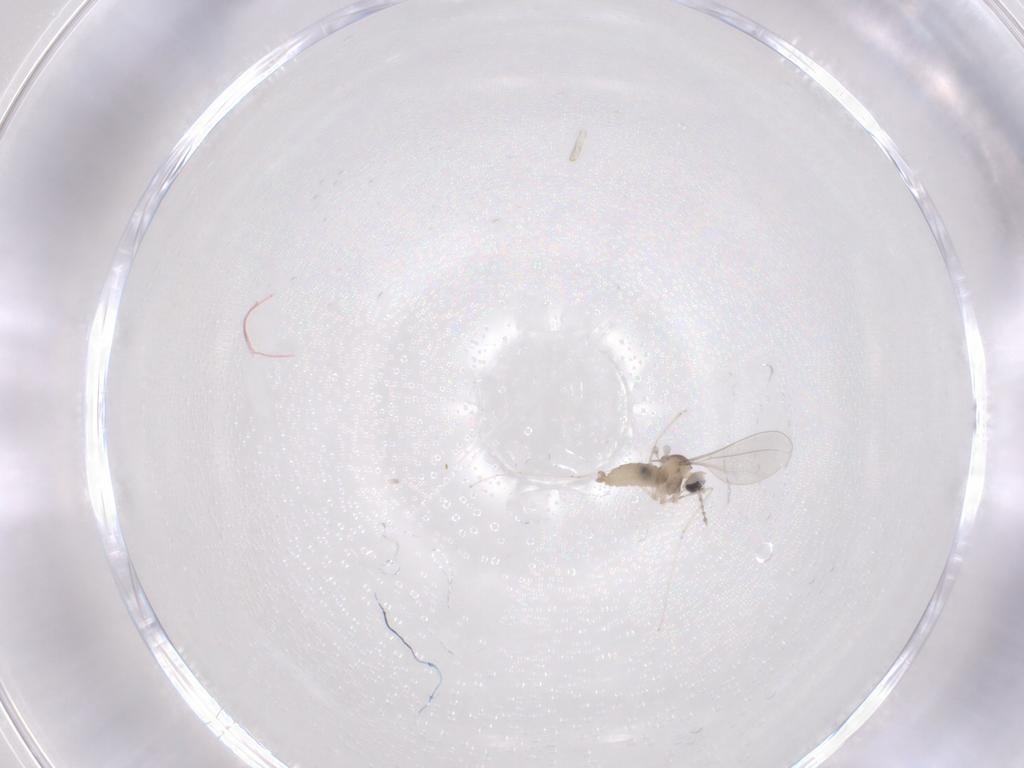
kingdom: Animalia
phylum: Arthropoda
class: Insecta
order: Diptera
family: Cecidomyiidae
